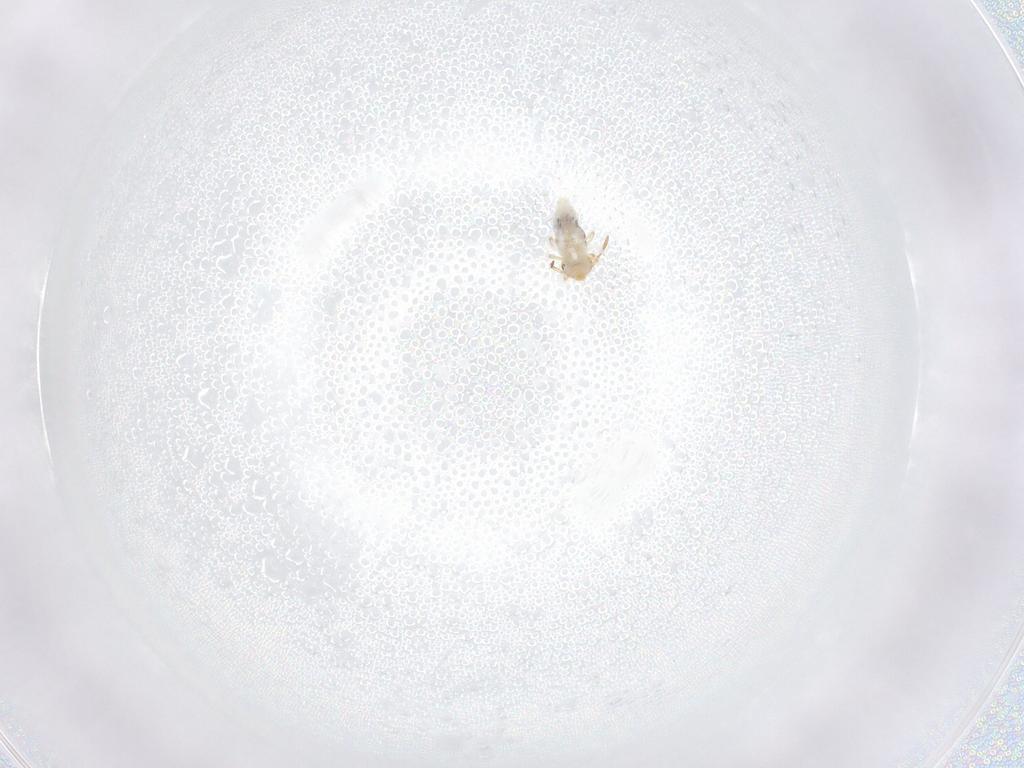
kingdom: Animalia
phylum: Arthropoda
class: Collembola
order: Symphypleona
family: Bourletiellidae
